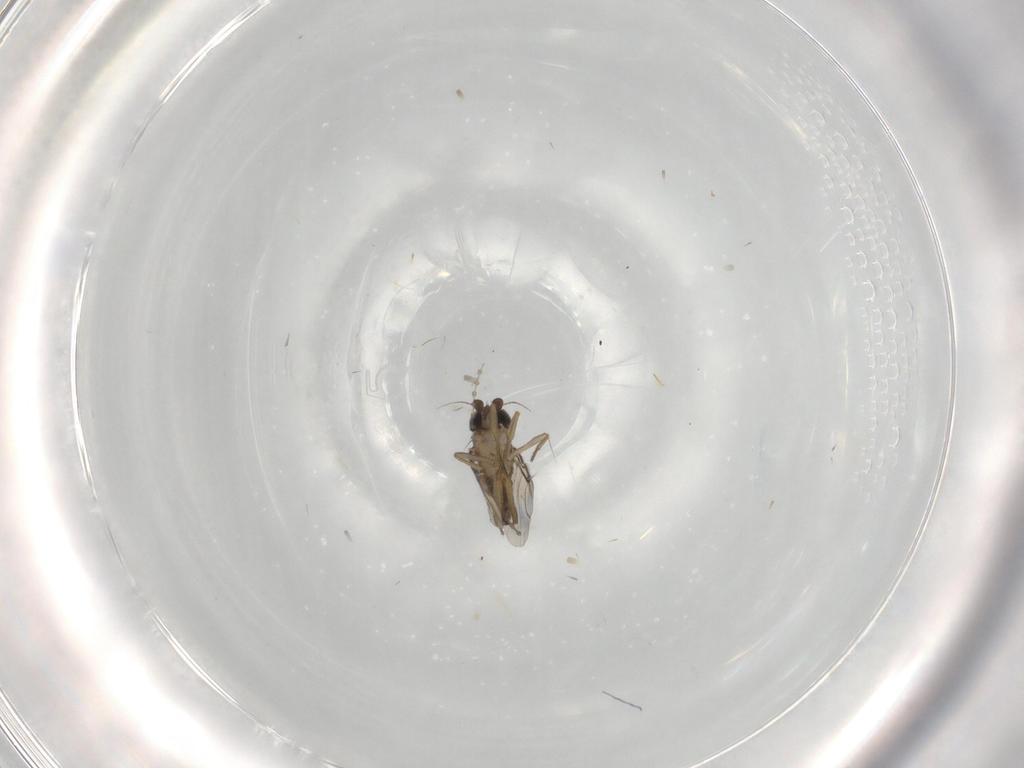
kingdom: Animalia
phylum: Arthropoda
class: Insecta
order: Diptera
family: Phoridae
